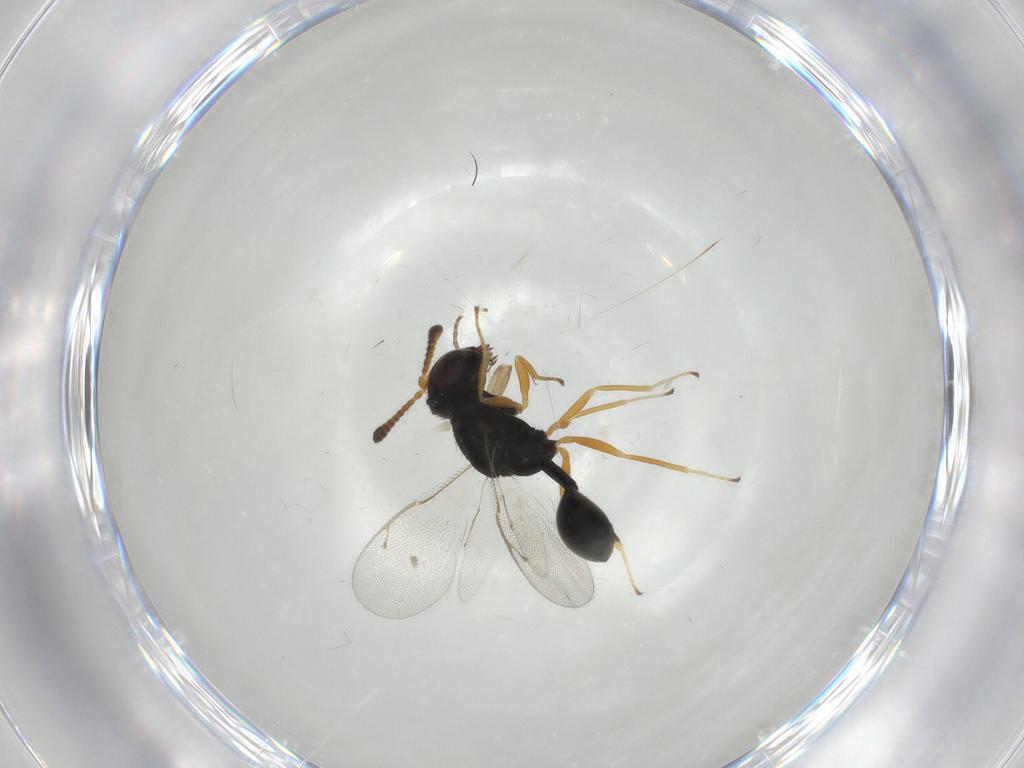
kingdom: Animalia
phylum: Arthropoda
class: Insecta
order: Hymenoptera
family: Pteromalidae
